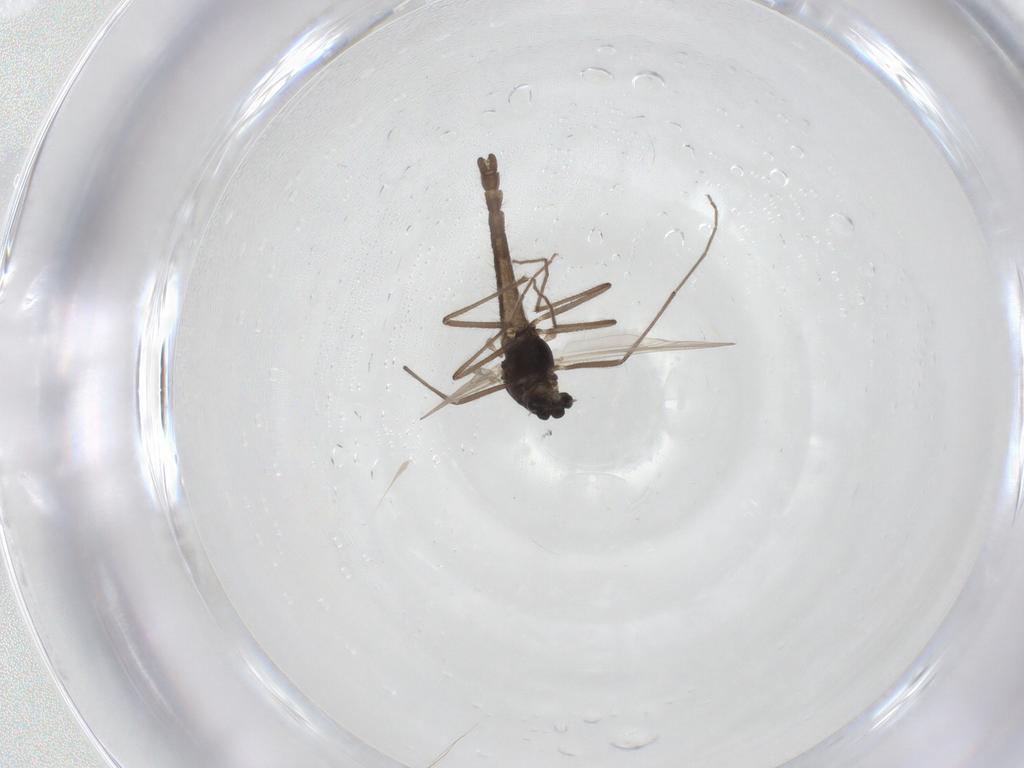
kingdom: Animalia
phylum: Arthropoda
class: Insecta
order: Diptera
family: Chironomidae
